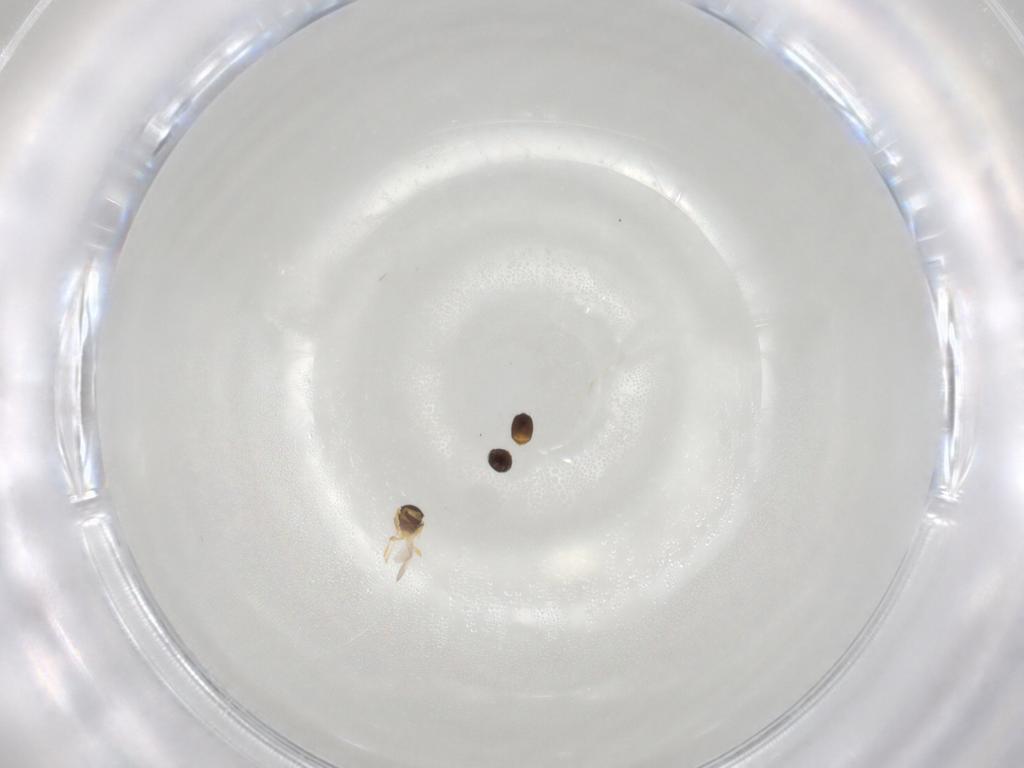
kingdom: Animalia
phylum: Arthropoda
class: Insecta
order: Hymenoptera
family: Platygastridae
